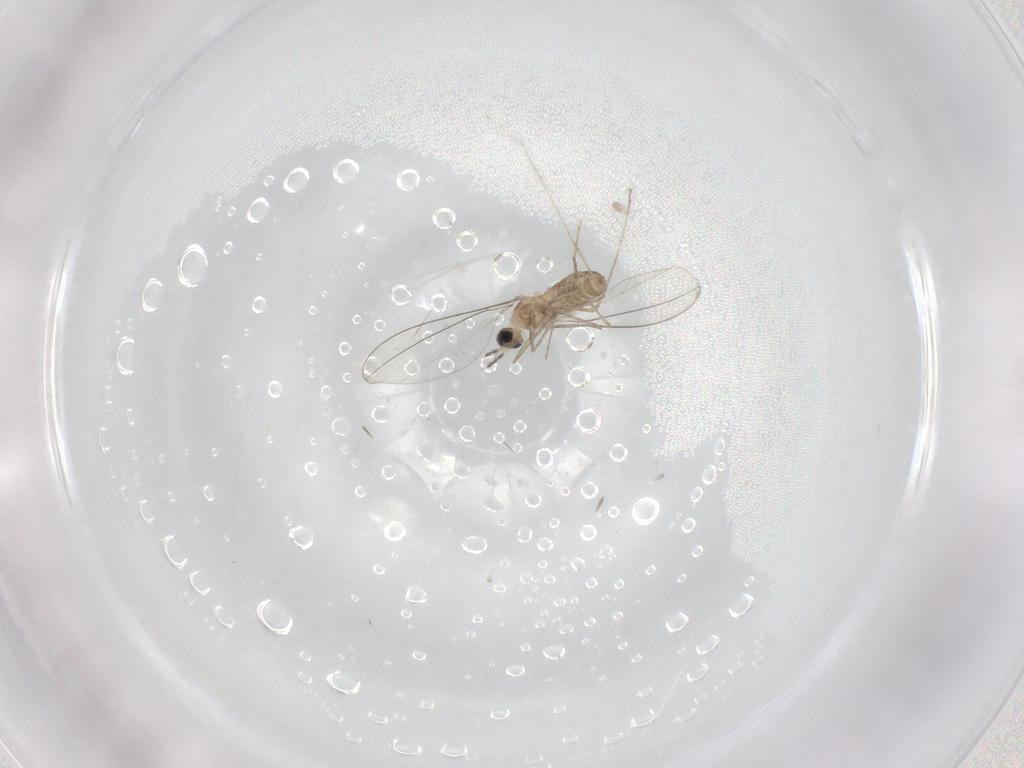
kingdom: Animalia
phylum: Arthropoda
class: Insecta
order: Diptera
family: Cecidomyiidae
